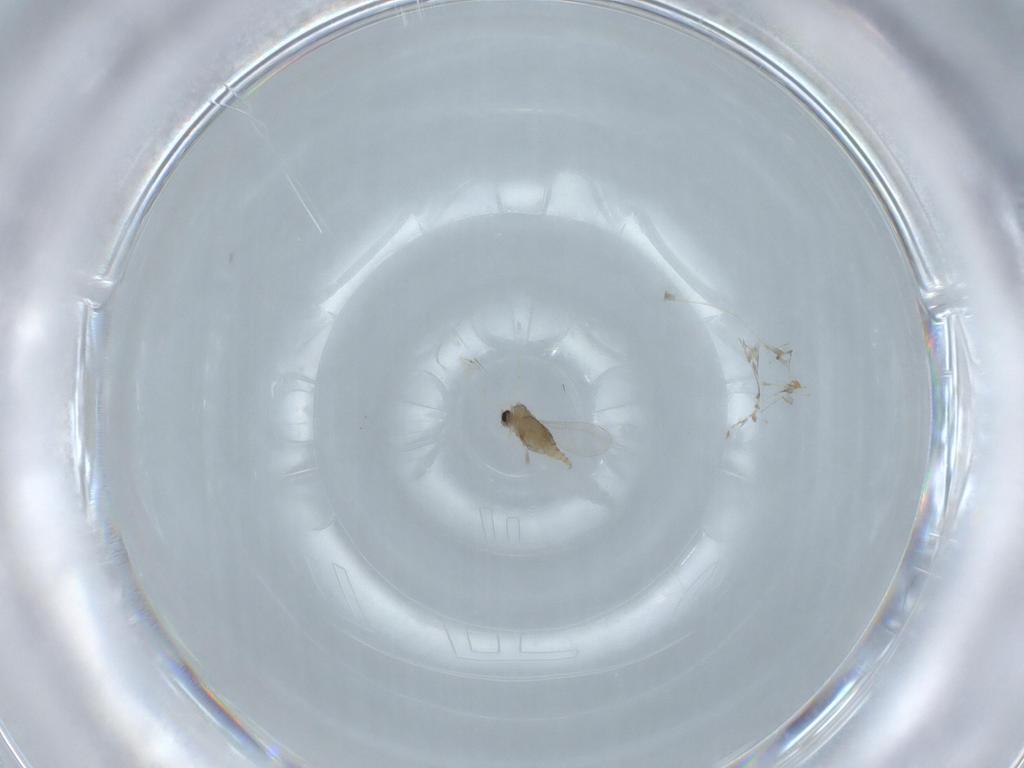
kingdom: Animalia
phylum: Arthropoda
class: Insecta
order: Diptera
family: Cecidomyiidae
